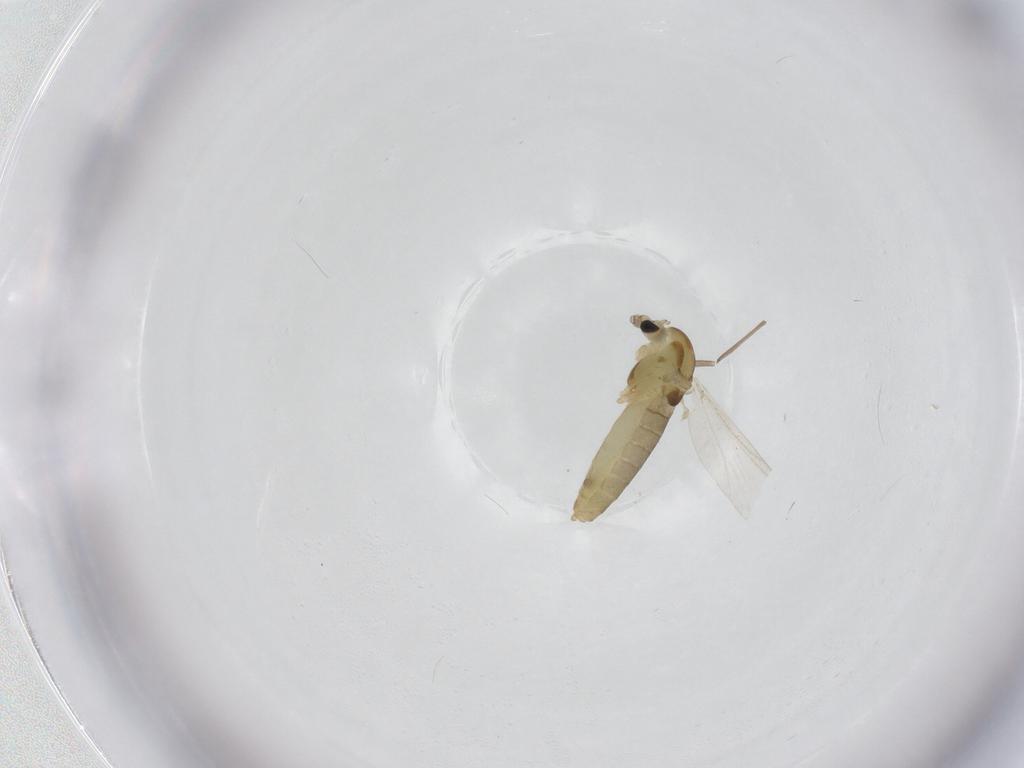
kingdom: Animalia
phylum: Arthropoda
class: Insecta
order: Diptera
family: Chironomidae
